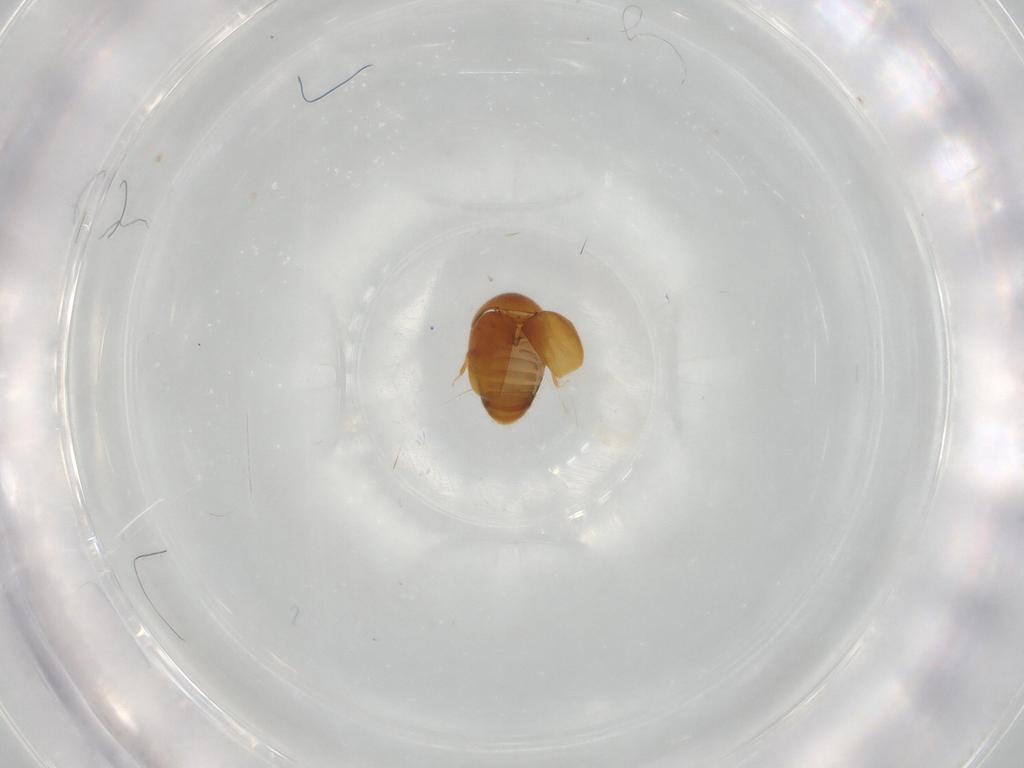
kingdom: Animalia
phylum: Arthropoda
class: Insecta
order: Coleoptera
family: Corylophidae
